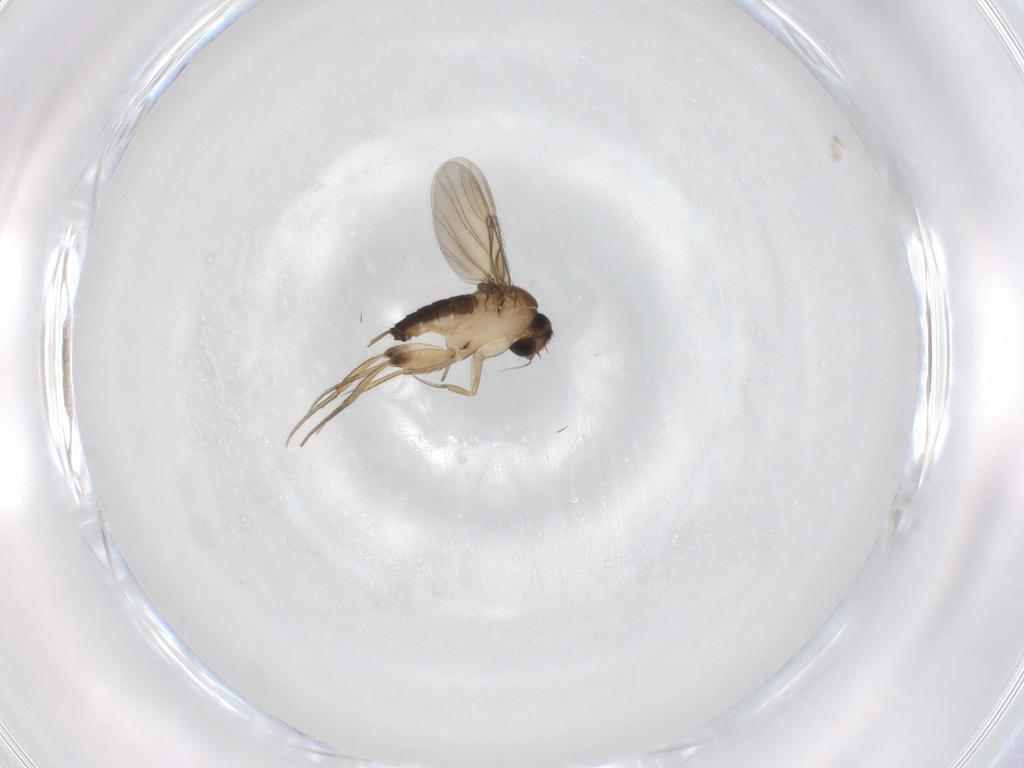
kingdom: Animalia
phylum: Arthropoda
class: Insecta
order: Diptera
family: Phoridae
